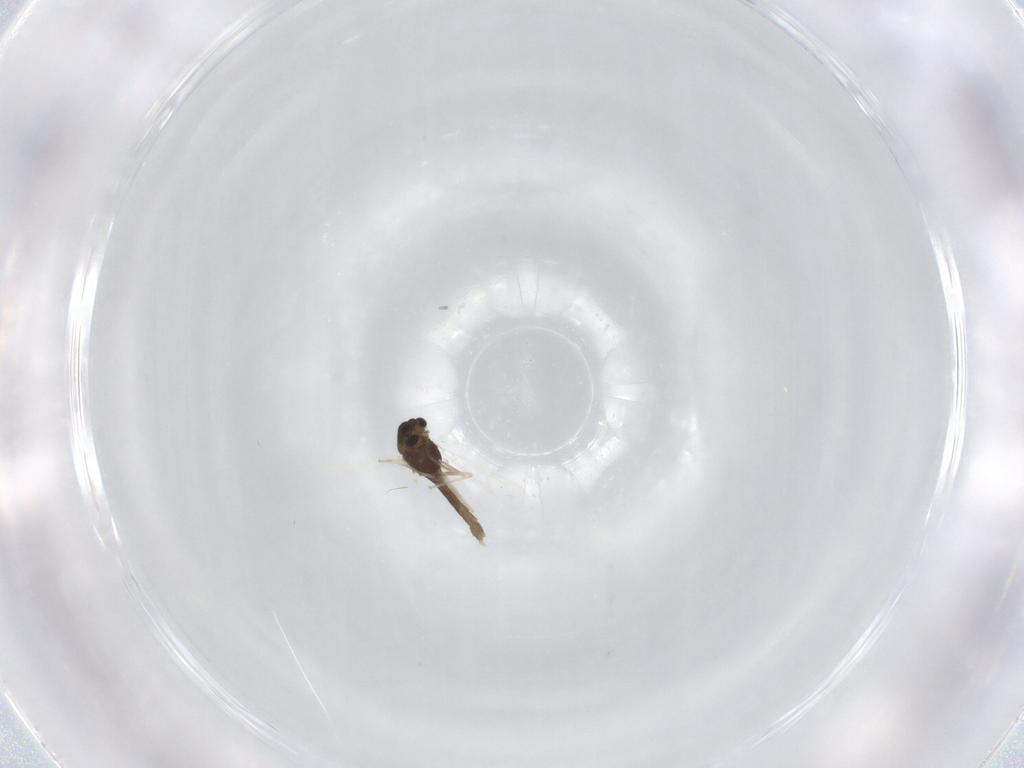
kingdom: Animalia
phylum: Arthropoda
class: Insecta
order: Diptera
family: Chironomidae
